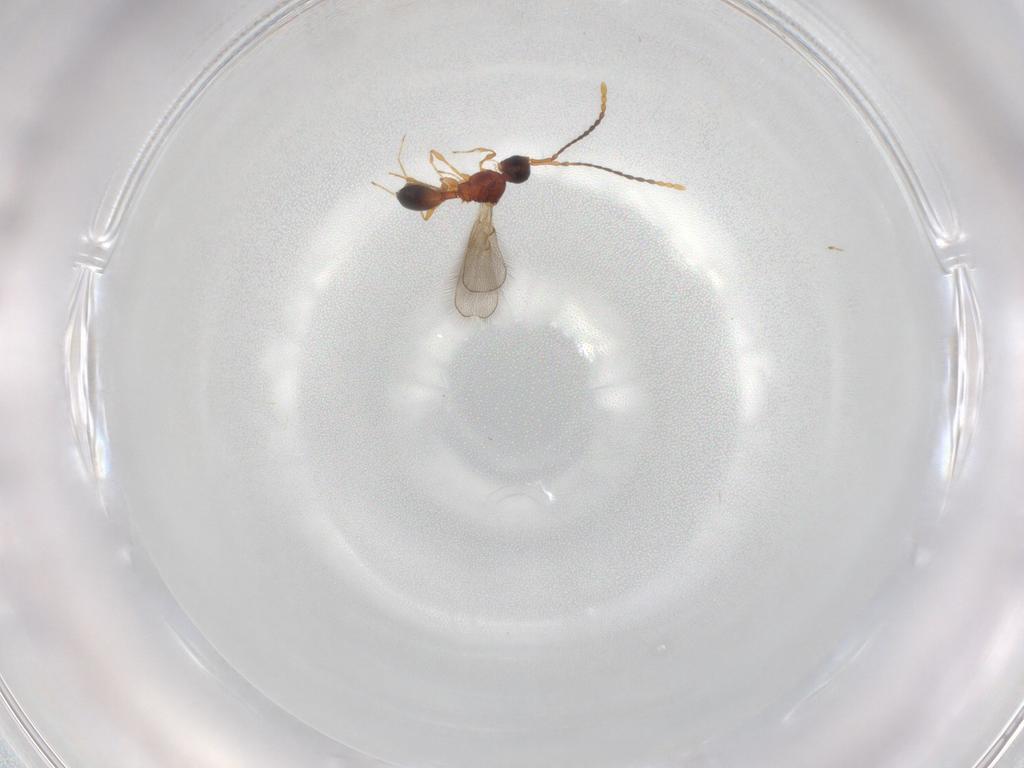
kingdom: Animalia
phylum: Arthropoda
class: Insecta
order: Hymenoptera
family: Diapriidae
